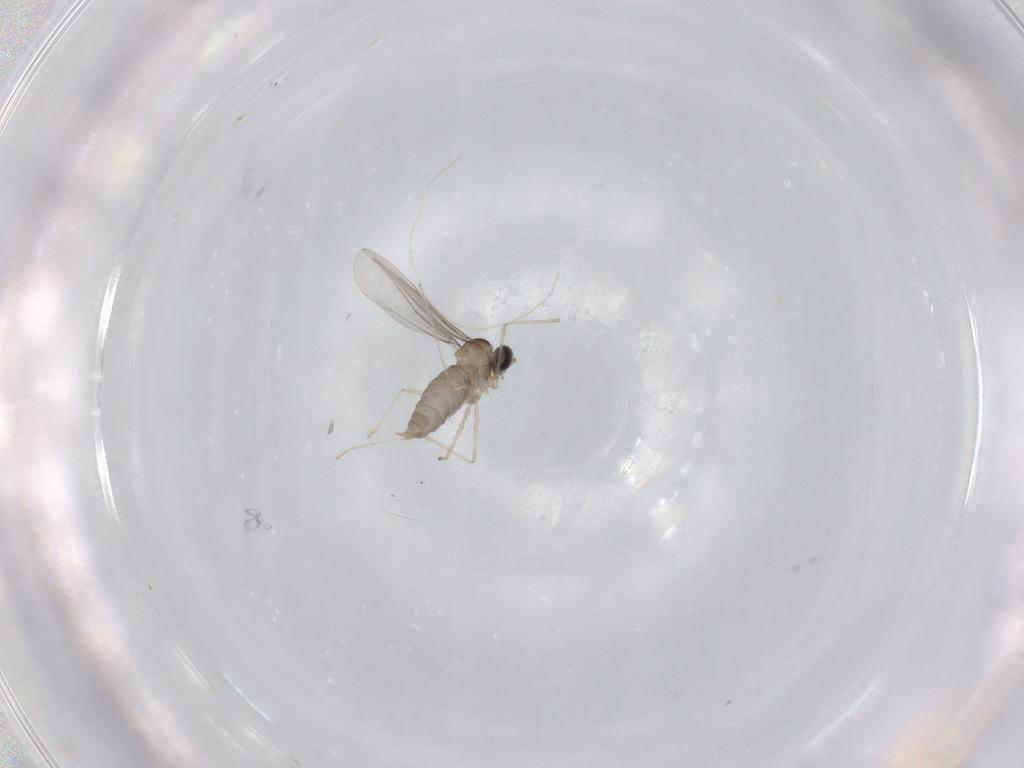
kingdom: Animalia
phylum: Arthropoda
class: Insecta
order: Diptera
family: Cecidomyiidae
